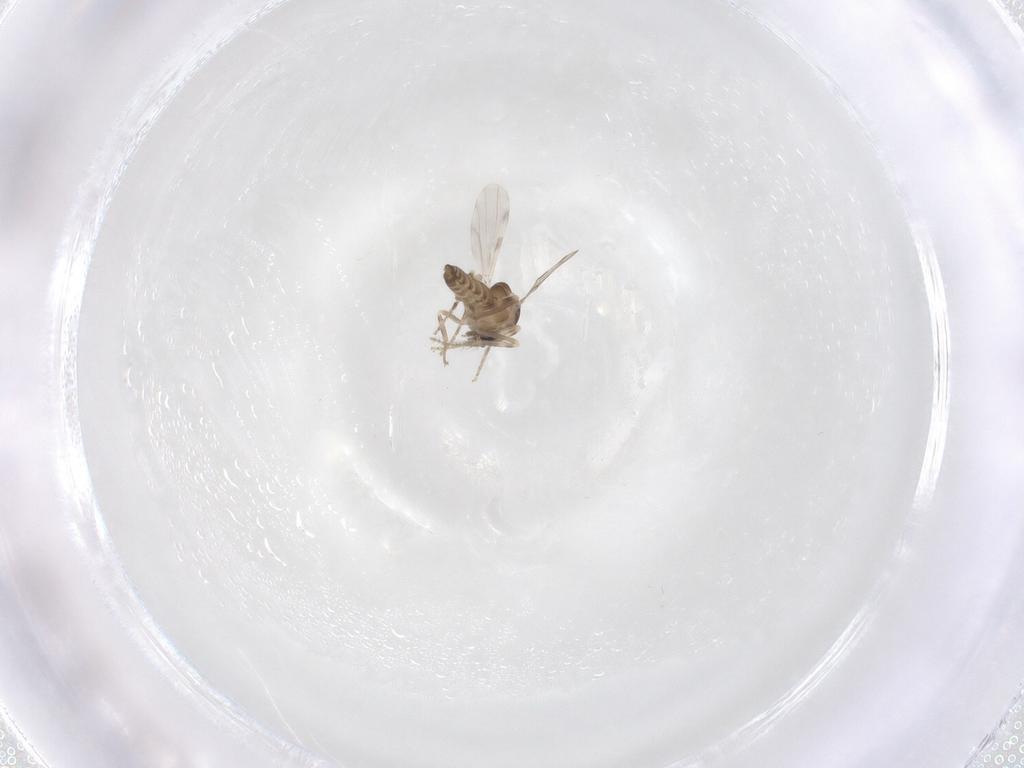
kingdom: Animalia
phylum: Arthropoda
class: Insecta
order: Diptera
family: Ceratopogonidae
